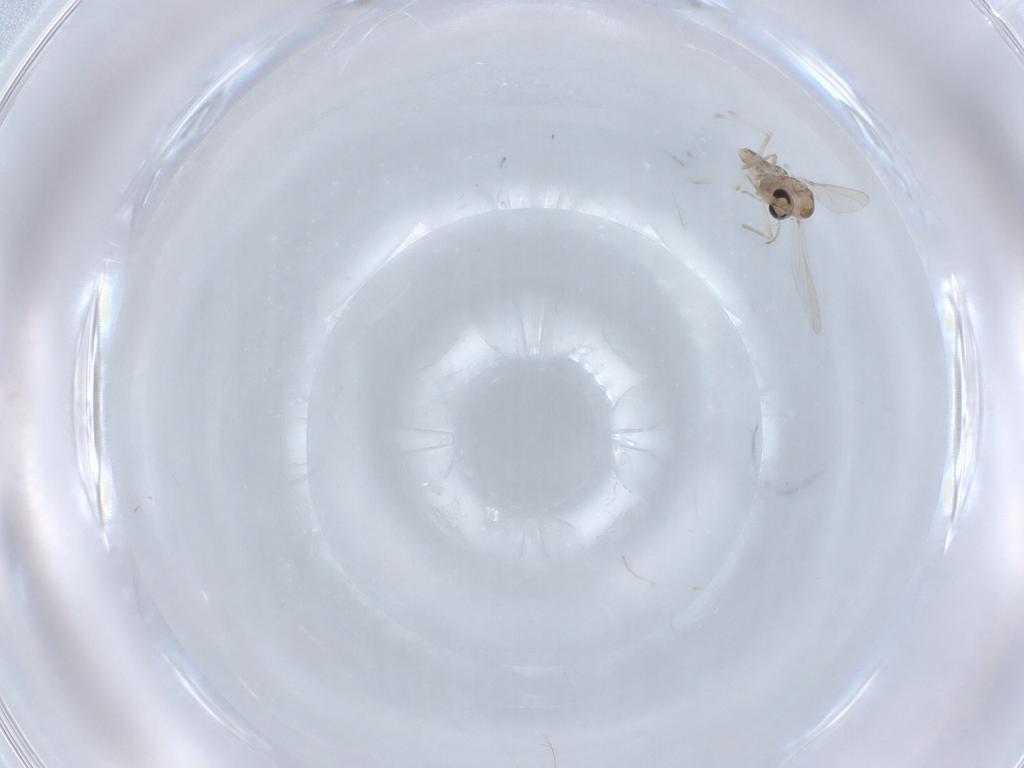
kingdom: Animalia
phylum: Arthropoda
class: Insecta
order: Diptera
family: Chironomidae
